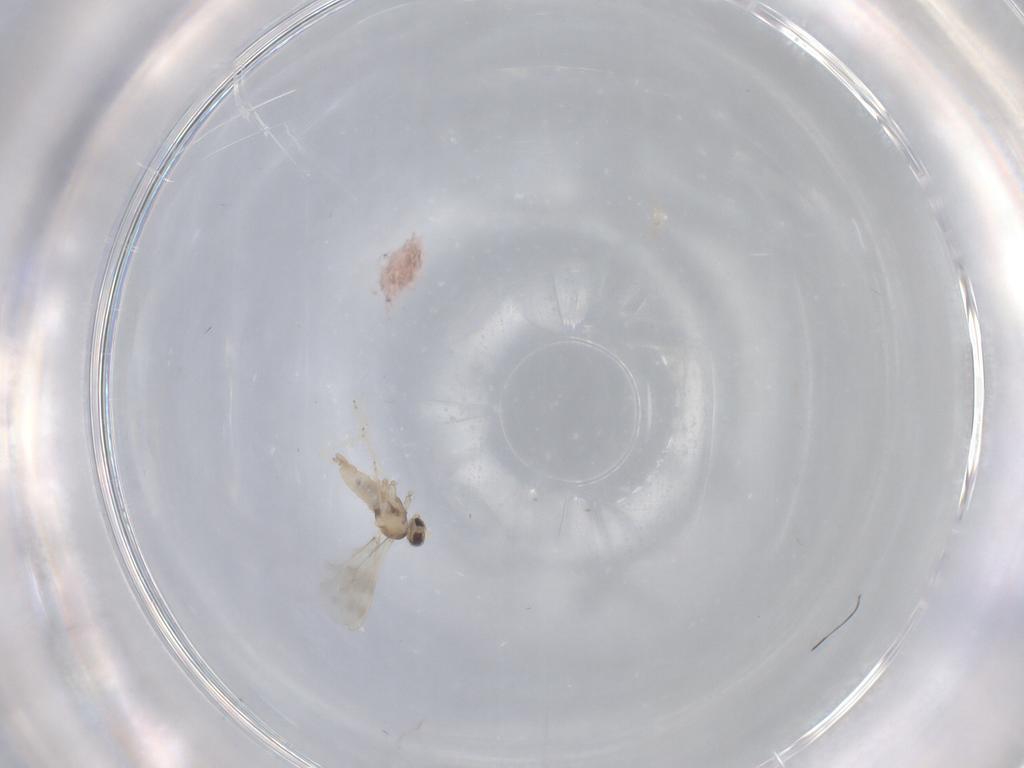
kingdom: Animalia
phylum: Arthropoda
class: Insecta
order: Diptera
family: Cecidomyiidae
